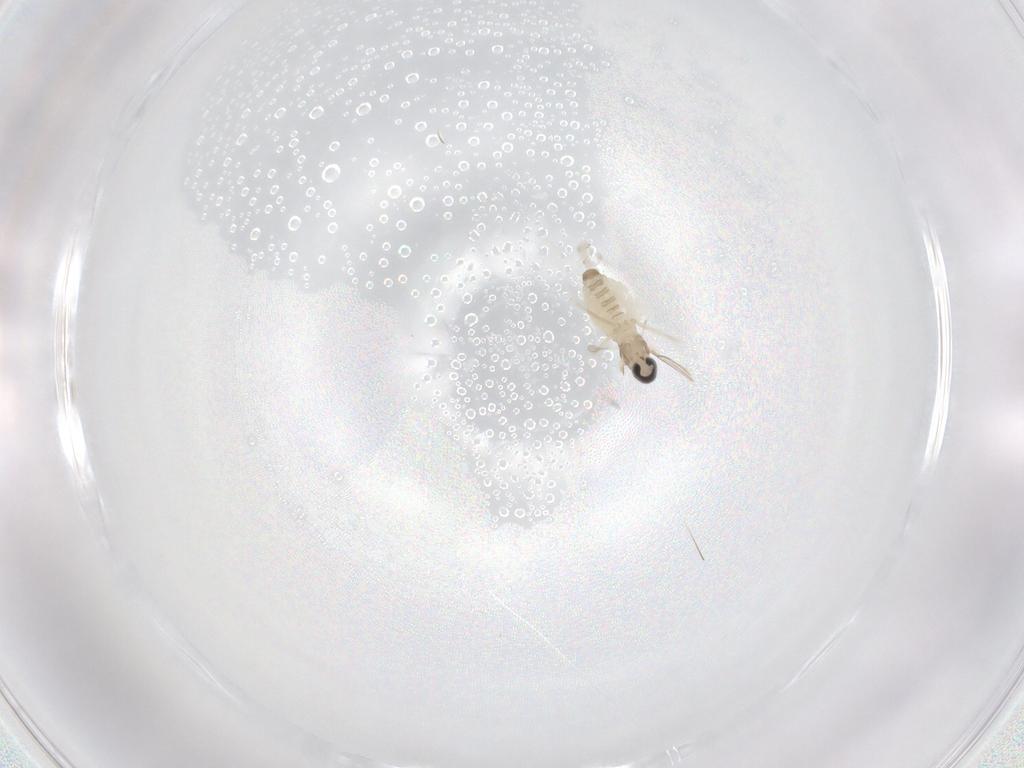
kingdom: Animalia
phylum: Arthropoda
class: Insecta
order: Diptera
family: Cecidomyiidae
